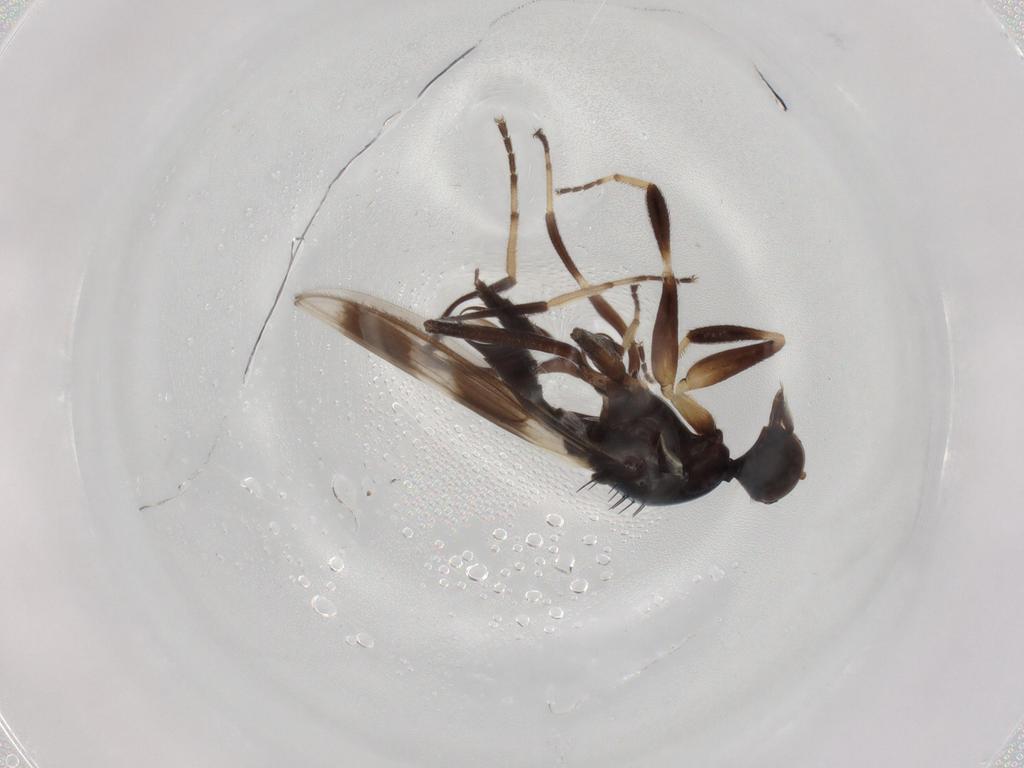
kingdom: Animalia
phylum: Arthropoda
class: Insecta
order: Diptera
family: Hybotidae
